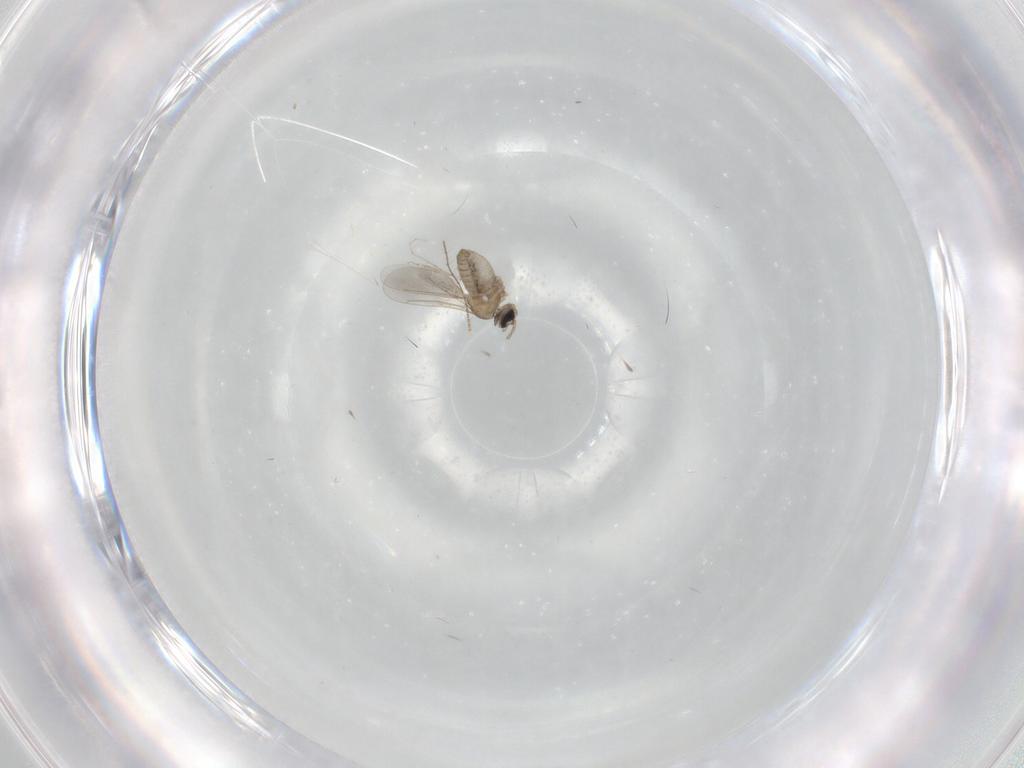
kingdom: Animalia
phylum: Arthropoda
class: Insecta
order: Diptera
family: Cecidomyiidae
